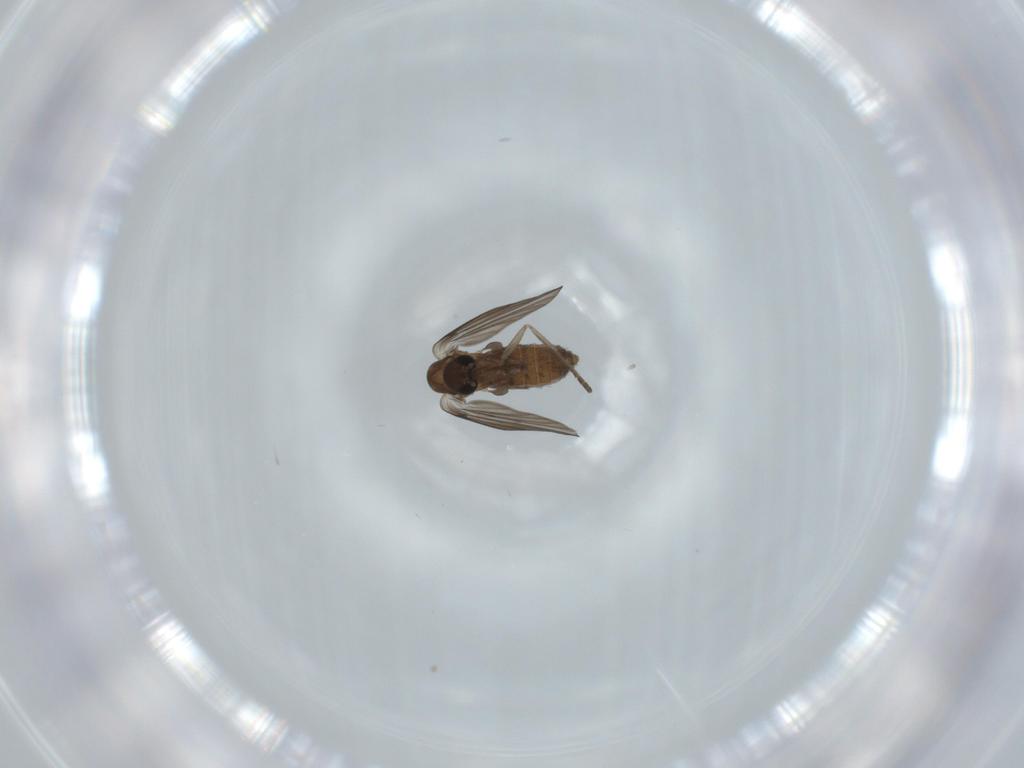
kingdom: Animalia
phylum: Arthropoda
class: Insecta
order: Diptera
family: Psychodidae
